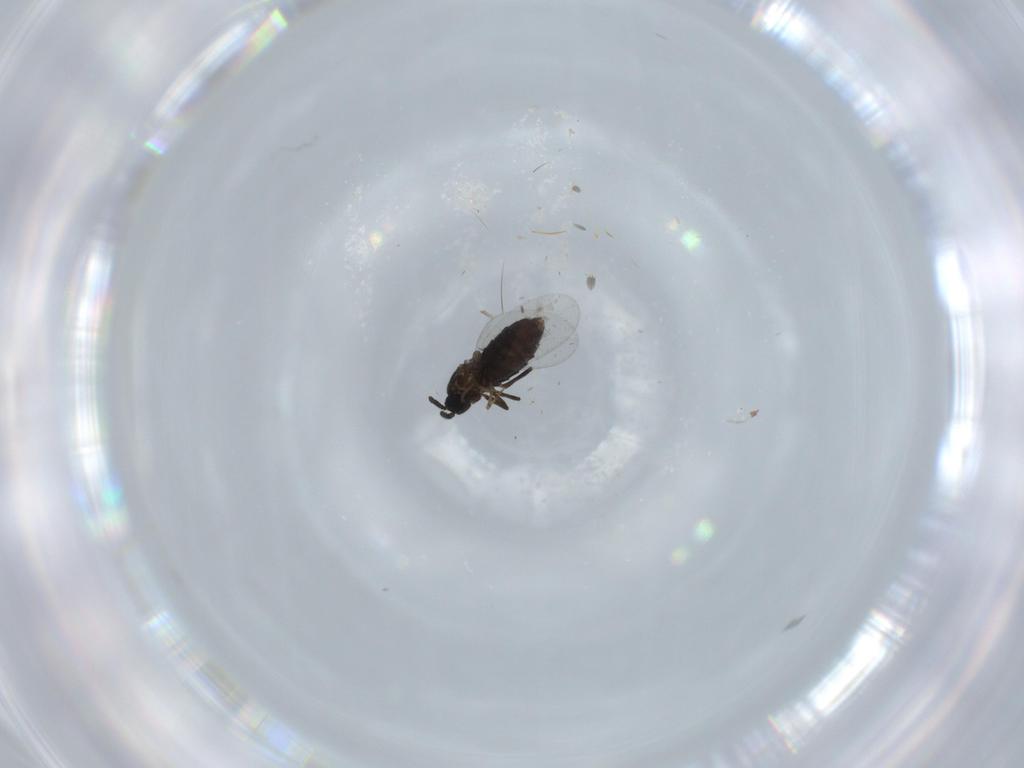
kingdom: Animalia
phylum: Arthropoda
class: Insecta
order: Diptera
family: Scatopsidae
